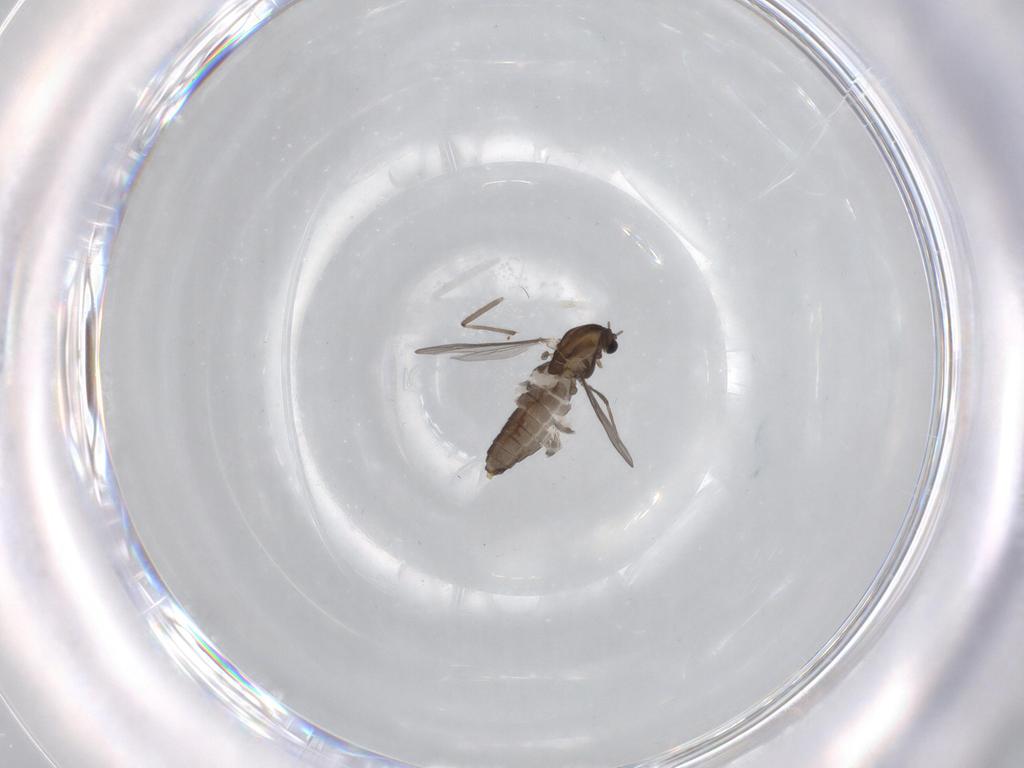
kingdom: Animalia
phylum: Arthropoda
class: Insecta
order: Diptera
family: Chironomidae
